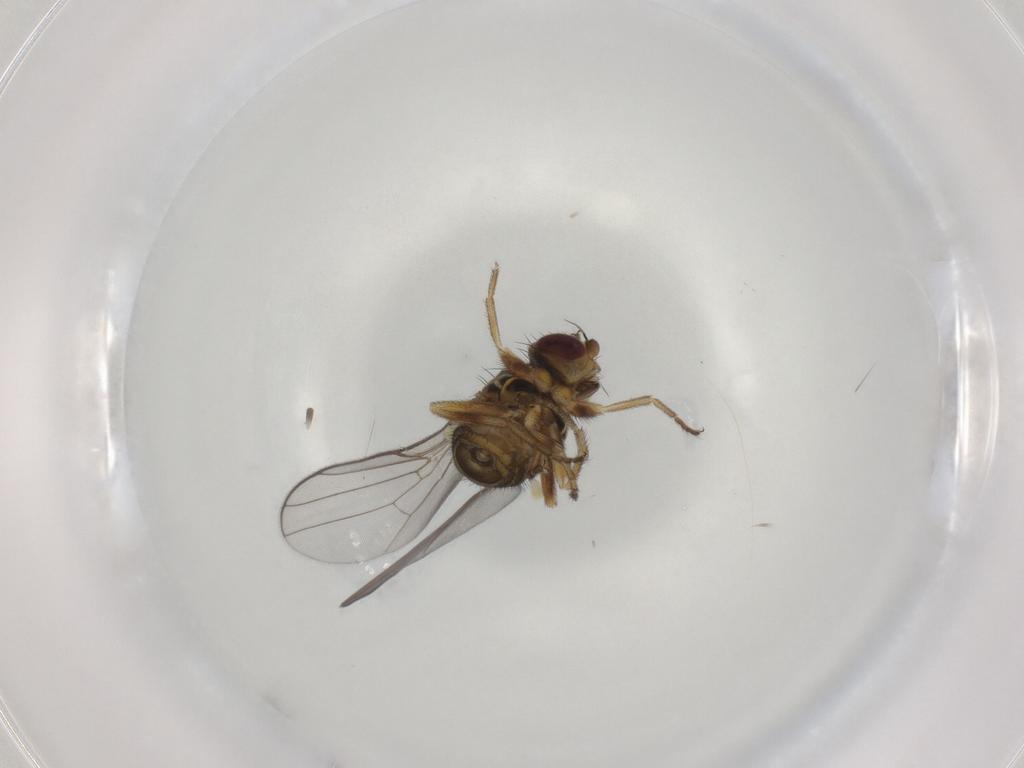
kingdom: Animalia
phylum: Arthropoda
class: Insecta
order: Diptera
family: Chloropidae
